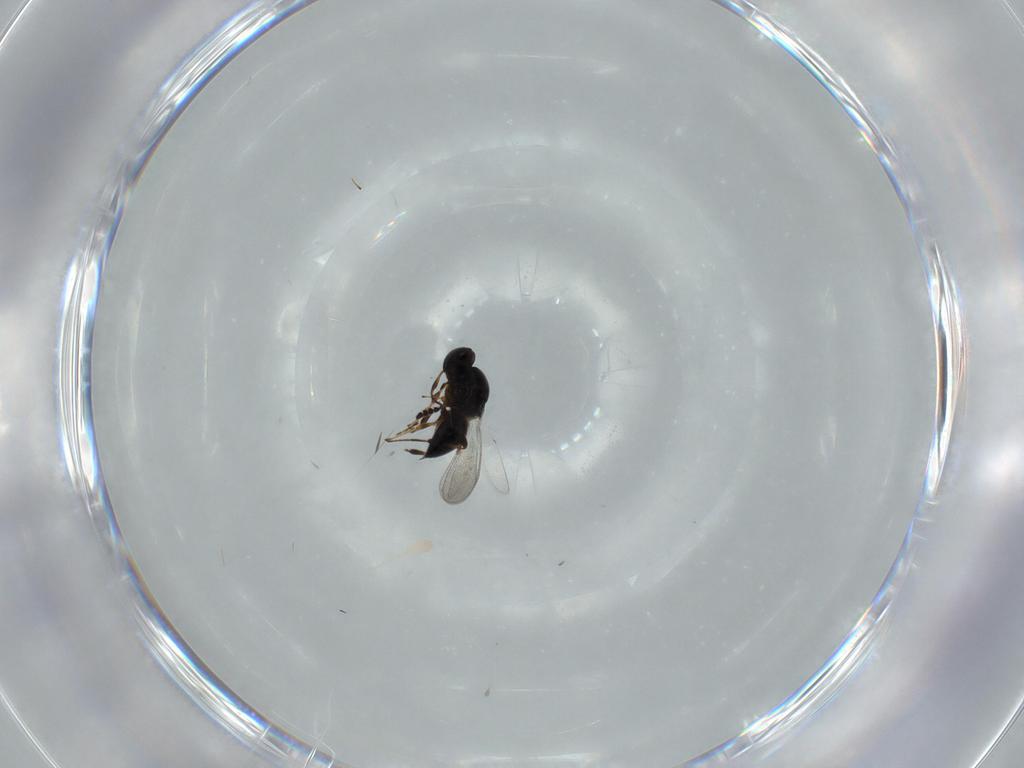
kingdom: Animalia
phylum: Arthropoda
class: Insecta
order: Hymenoptera
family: Platygastridae
